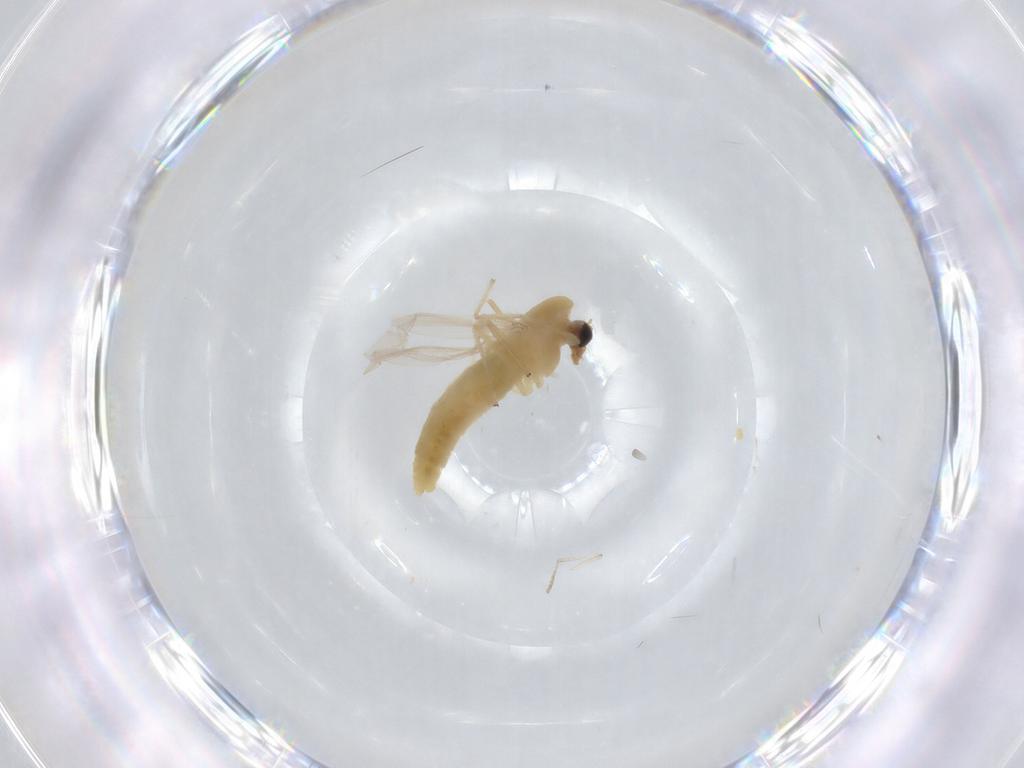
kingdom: Animalia
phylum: Arthropoda
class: Insecta
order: Diptera
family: Chironomidae
